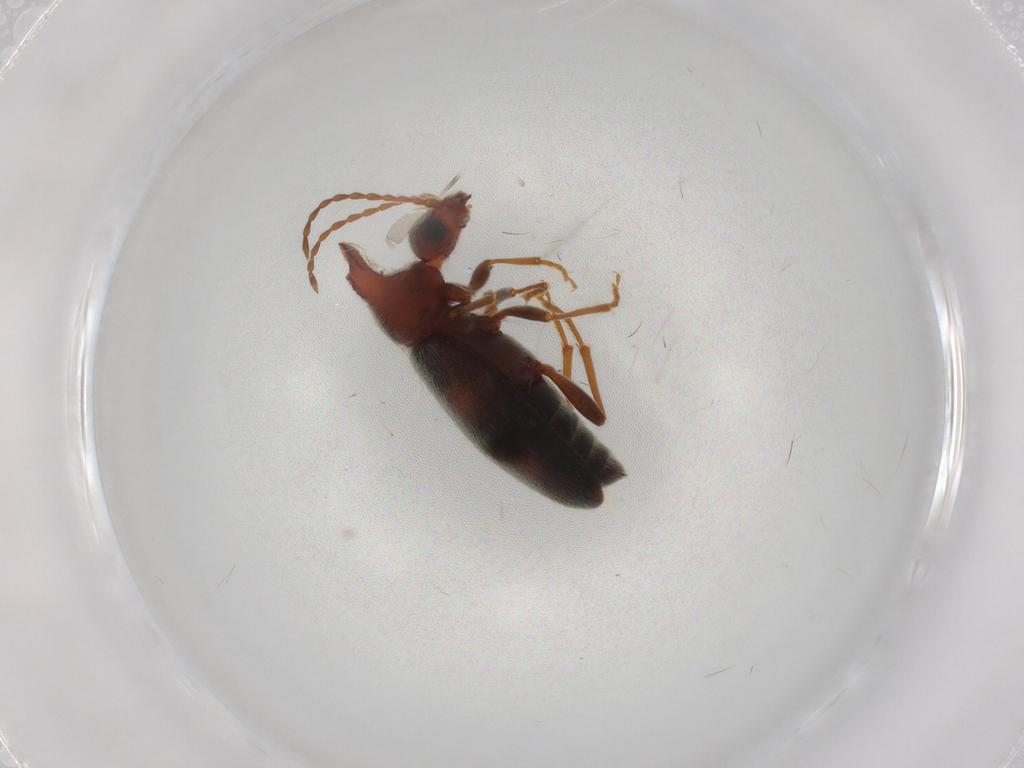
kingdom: Animalia
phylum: Arthropoda
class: Insecta
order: Coleoptera
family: Anthicidae
